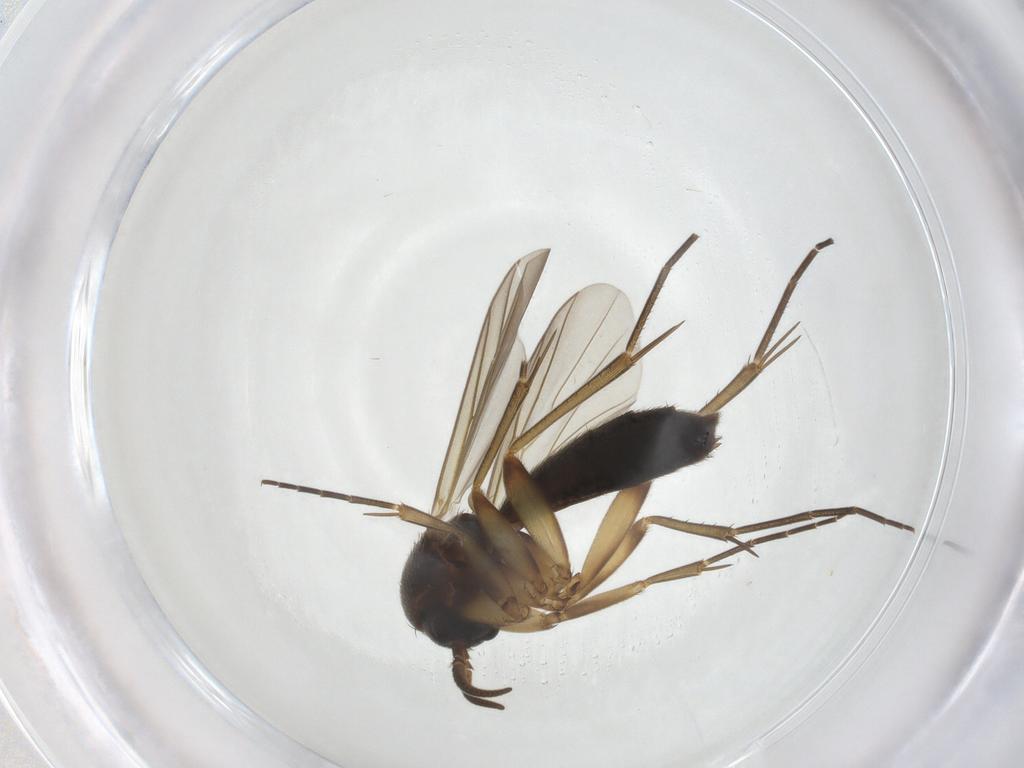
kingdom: Animalia
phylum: Arthropoda
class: Insecta
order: Diptera
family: Mycetophilidae
